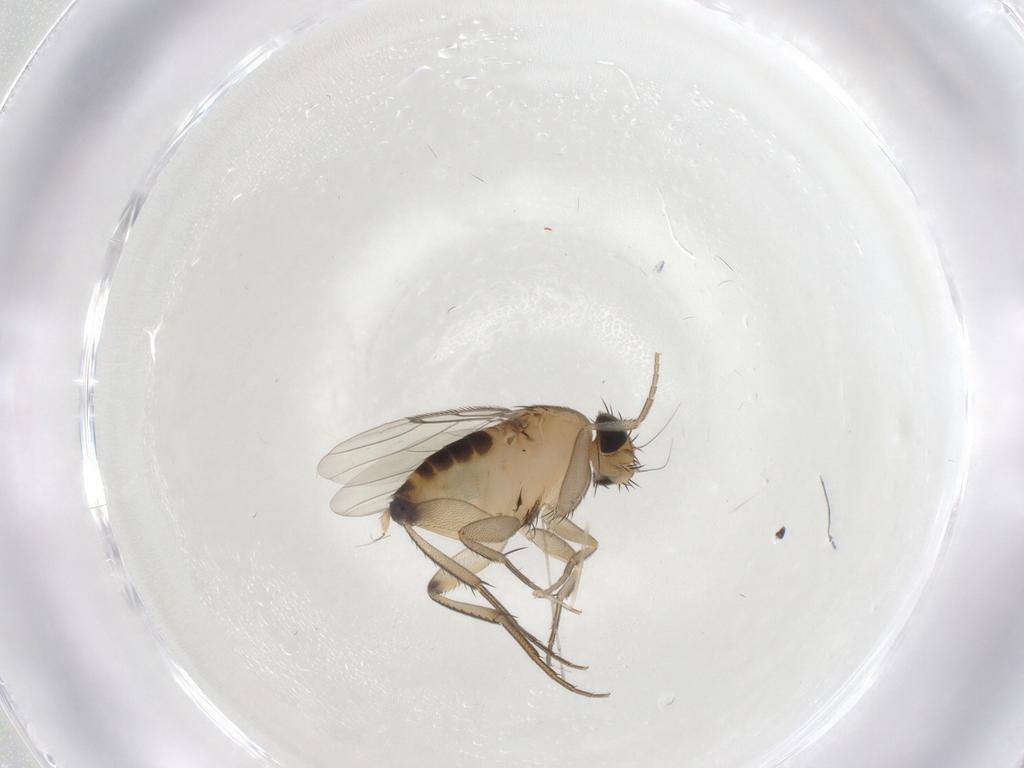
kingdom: Animalia
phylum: Arthropoda
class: Insecta
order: Diptera
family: Phoridae
